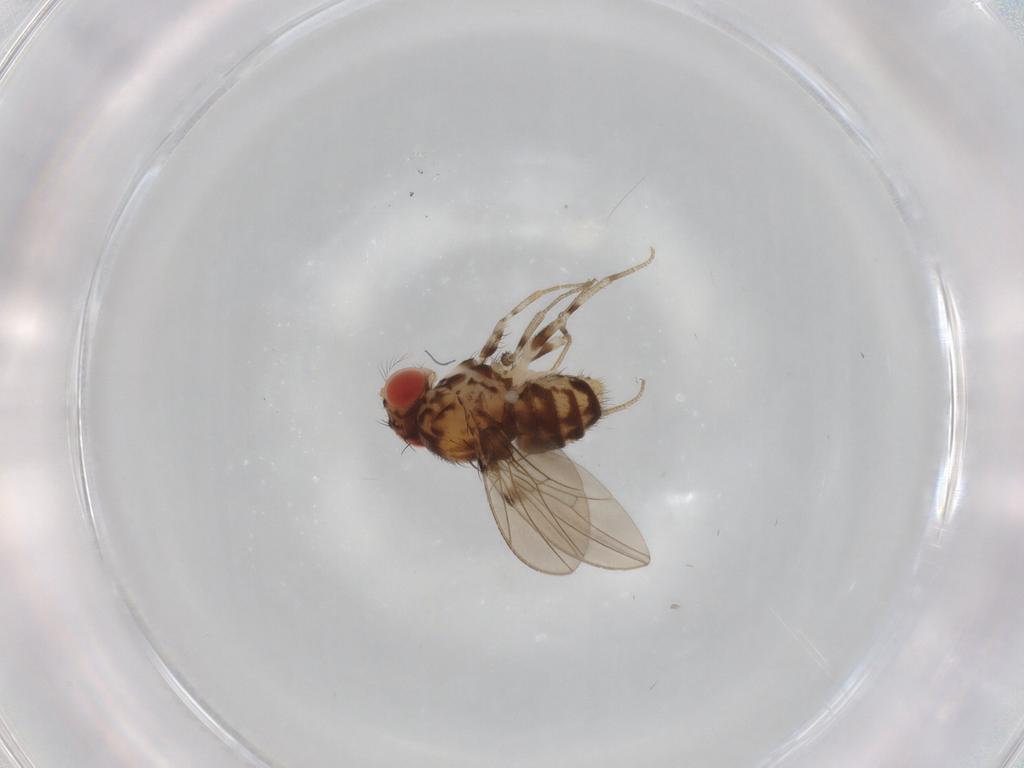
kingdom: Animalia
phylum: Arthropoda
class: Insecta
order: Diptera
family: Drosophilidae
